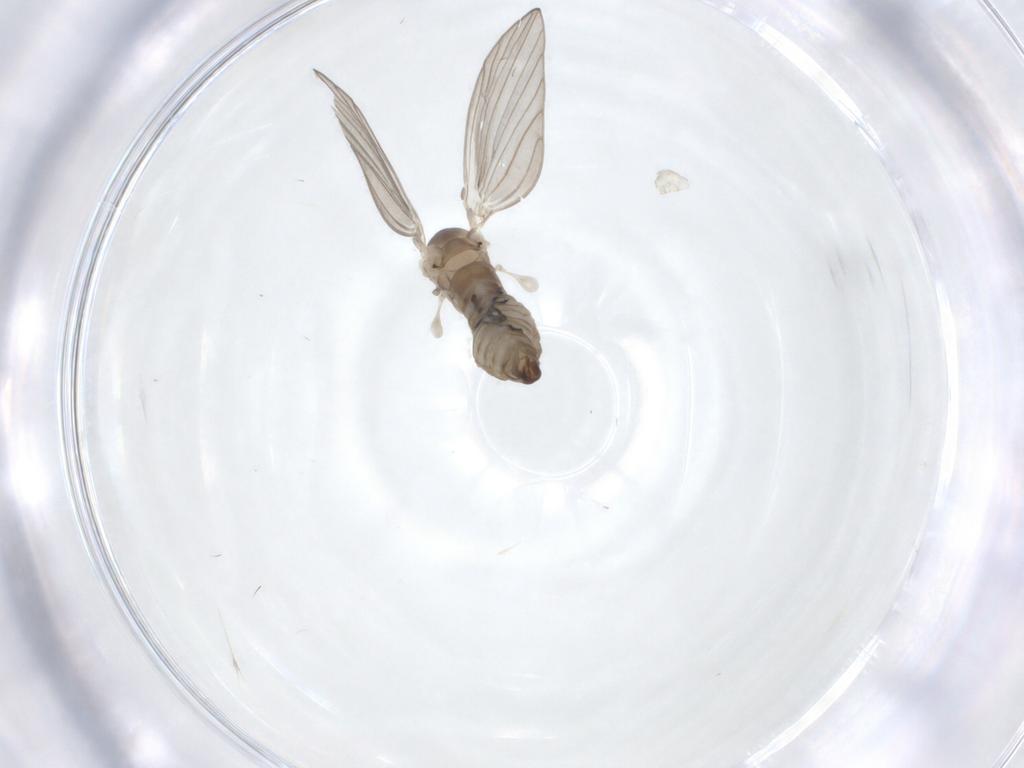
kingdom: Animalia
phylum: Arthropoda
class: Insecta
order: Diptera
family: Psychodidae
